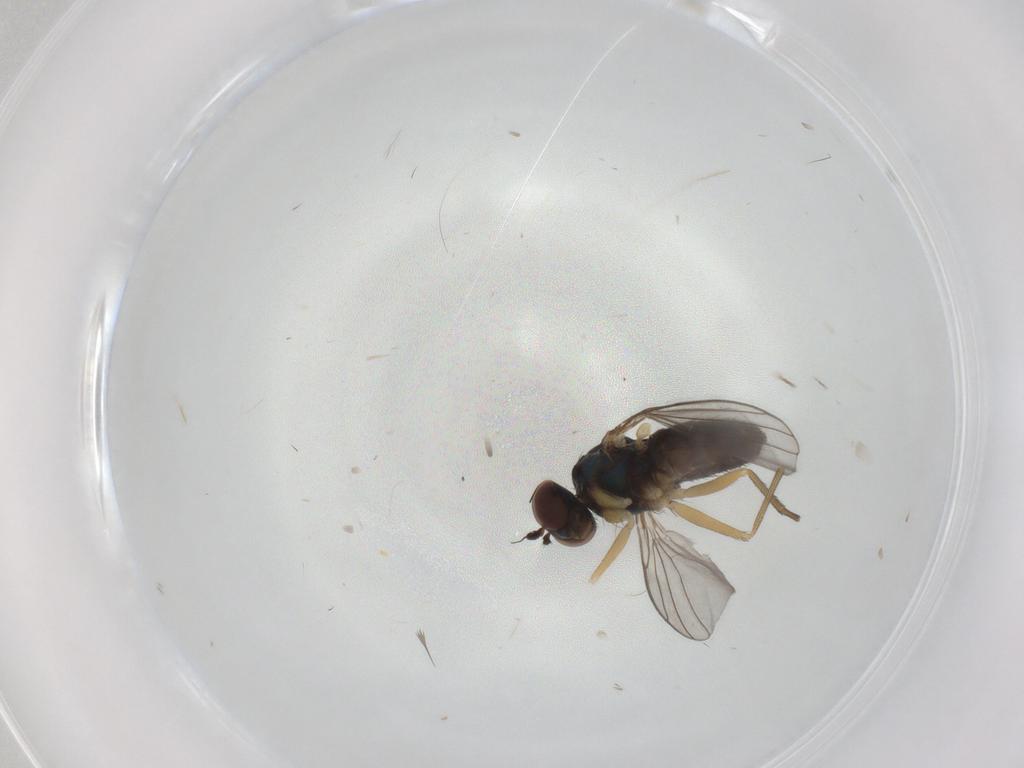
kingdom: Animalia
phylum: Arthropoda
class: Insecta
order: Diptera
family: Dolichopodidae
